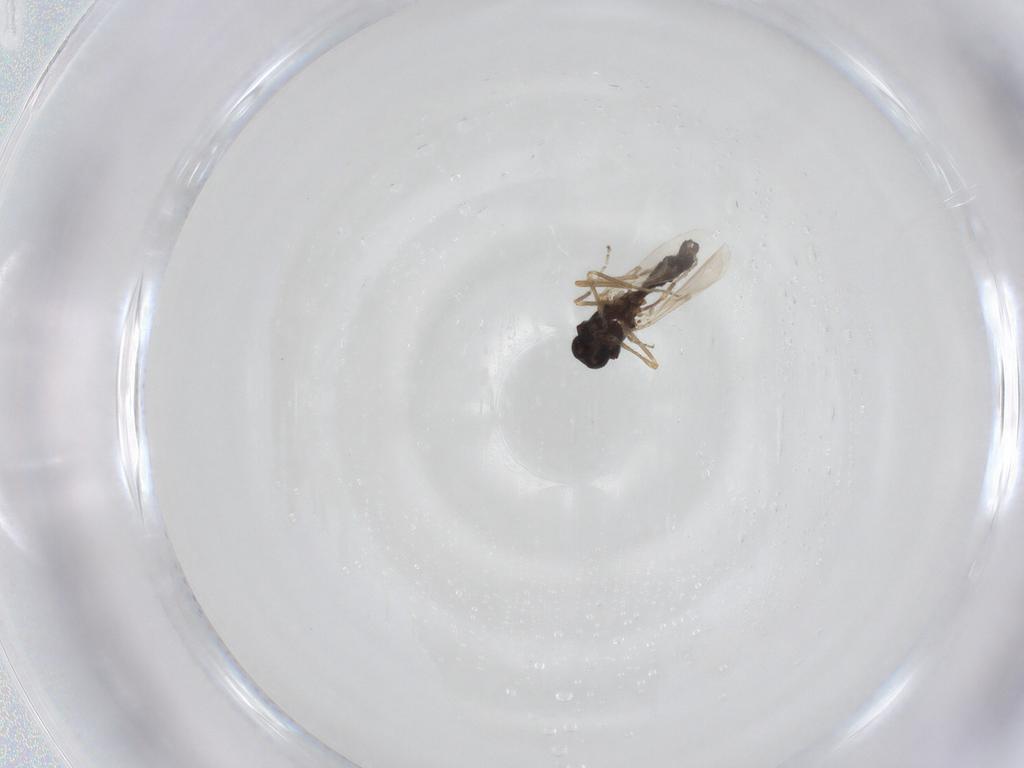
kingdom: Animalia
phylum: Arthropoda
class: Insecta
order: Diptera
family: Ceratopogonidae
